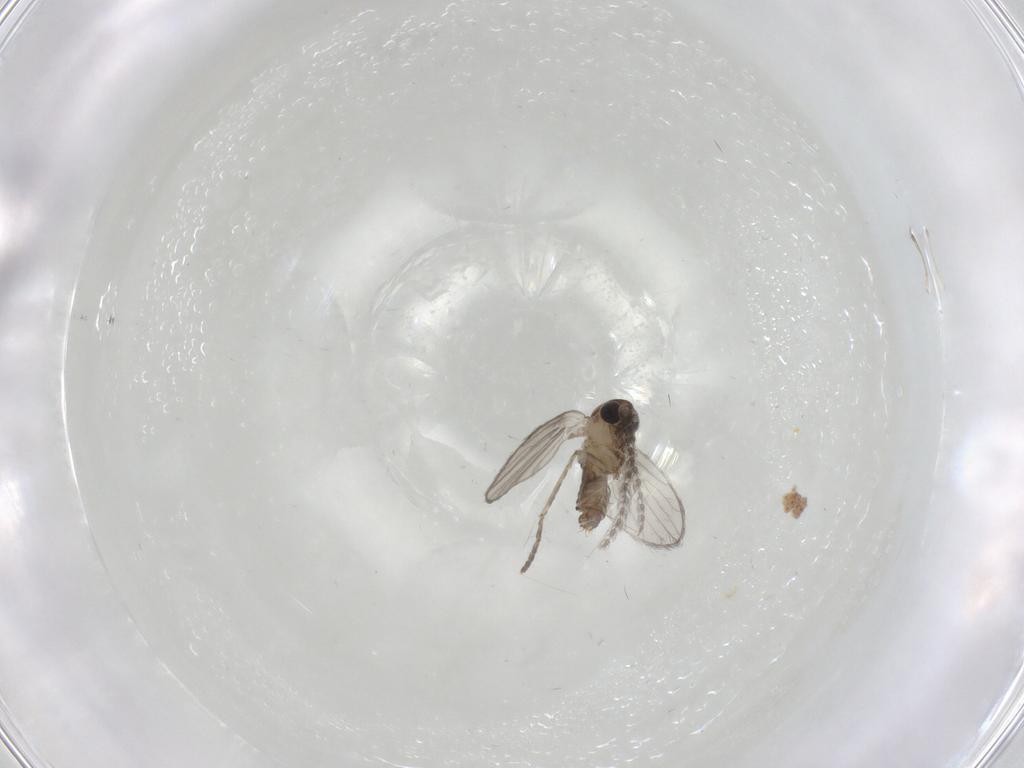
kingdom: Animalia
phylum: Arthropoda
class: Insecta
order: Diptera
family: Psychodidae
